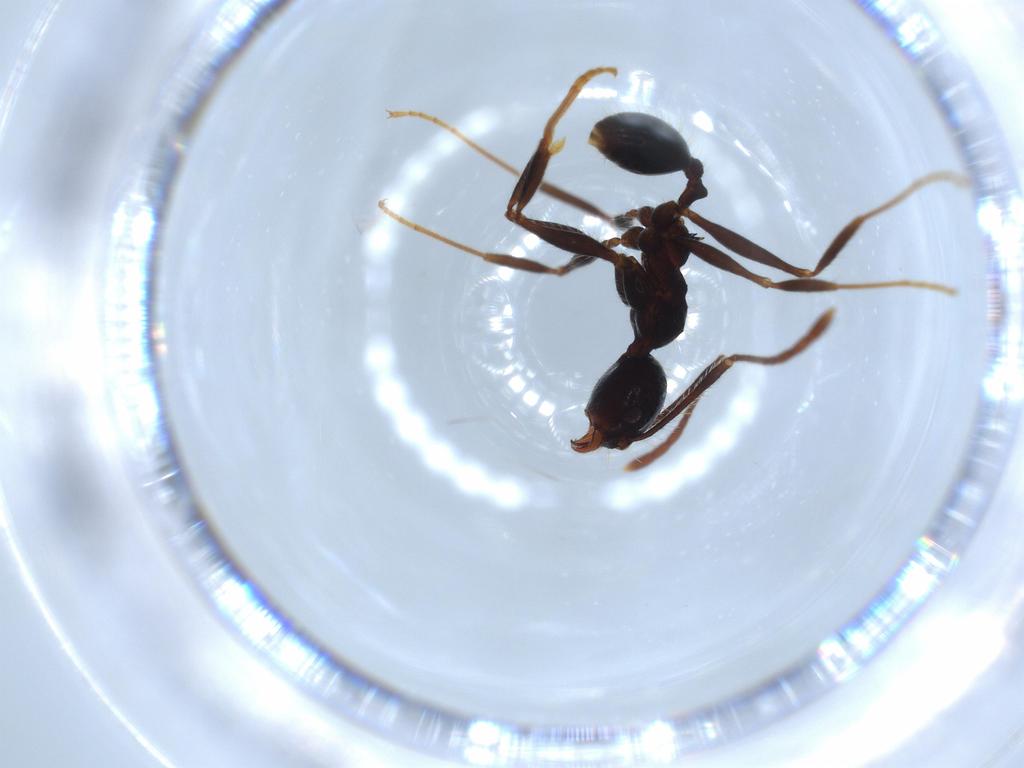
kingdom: Animalia
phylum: Arthropoda
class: Insecta
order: Hymenoptera
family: Formicidae
